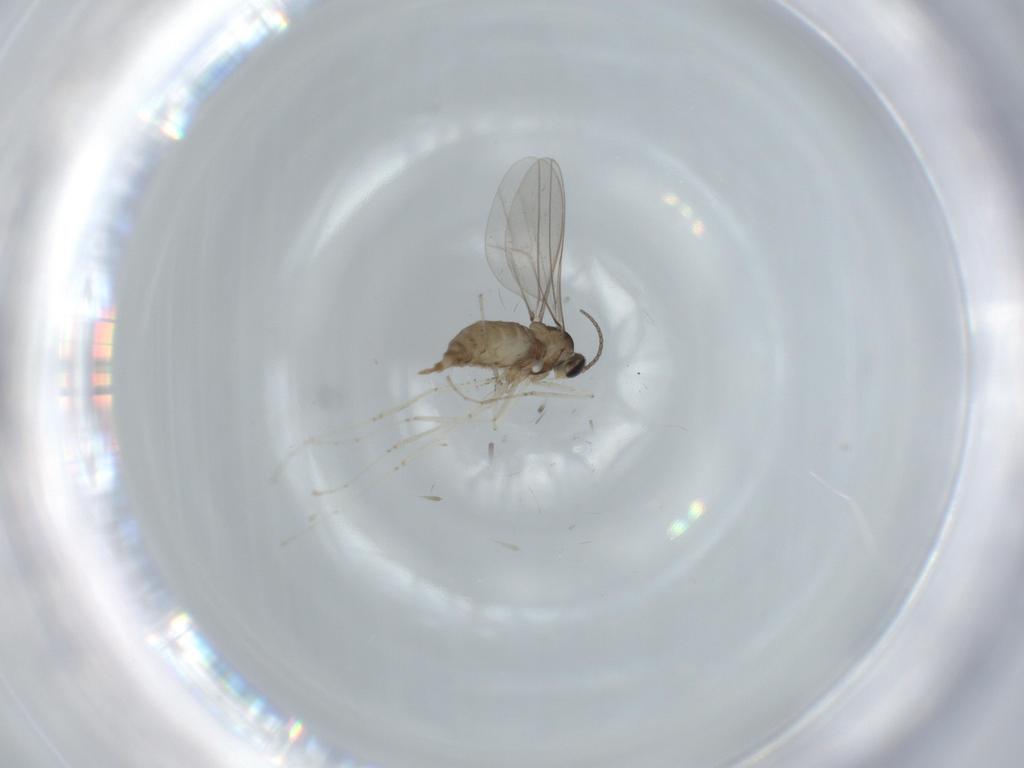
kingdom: Animalia
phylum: Arthropoda
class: Insecta
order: Diptera
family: Cecidomyiidae
